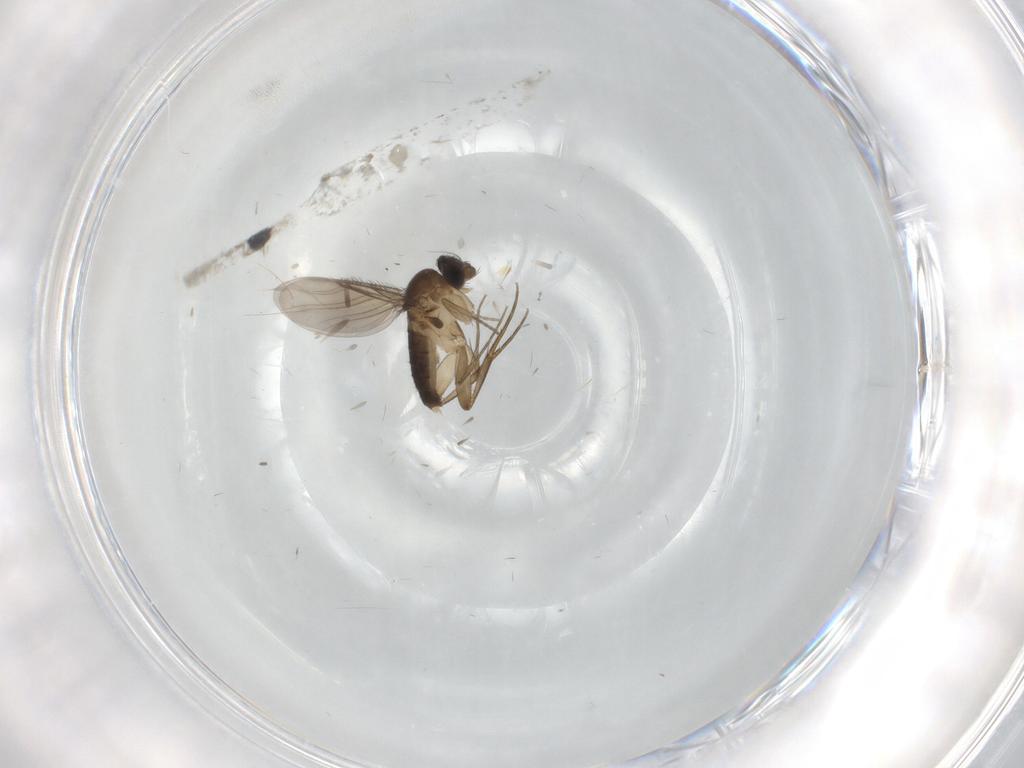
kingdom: Animalia
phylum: Arthropoda
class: Insecta
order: Diptera
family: Phoridae
